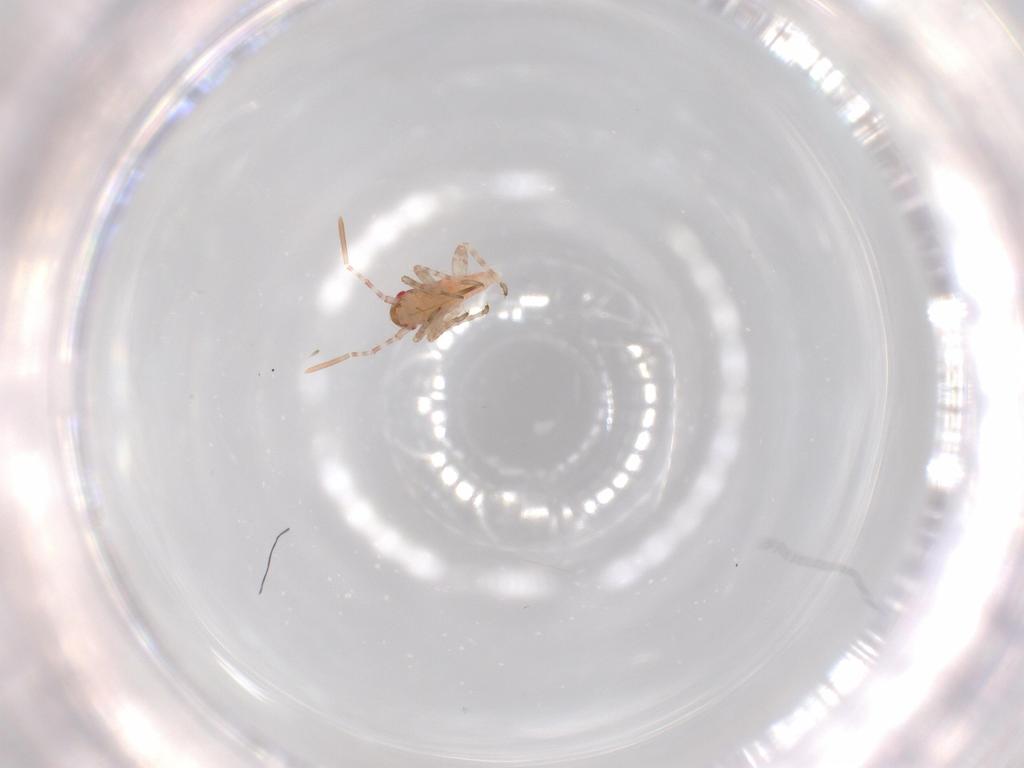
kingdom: Animalia
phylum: Arthropoda
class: Insecta
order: Hemiptera
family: Miridae
